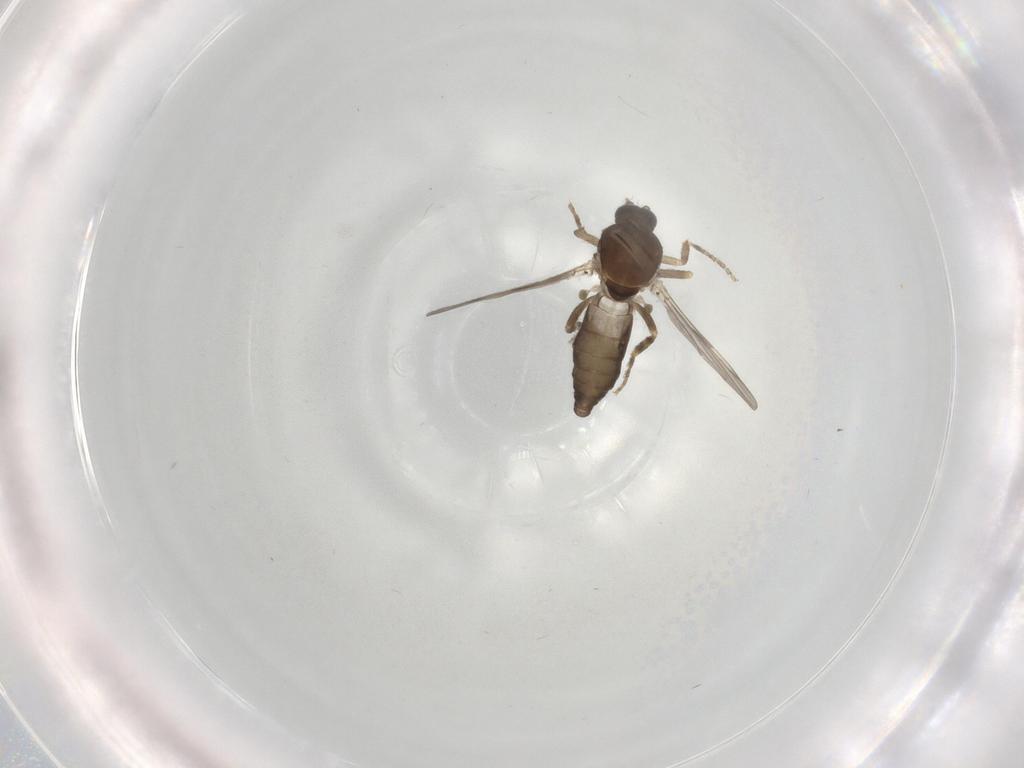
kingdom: Animalia
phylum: Arthropoda
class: Insecta
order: Diptera
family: Ceratopogonidae
